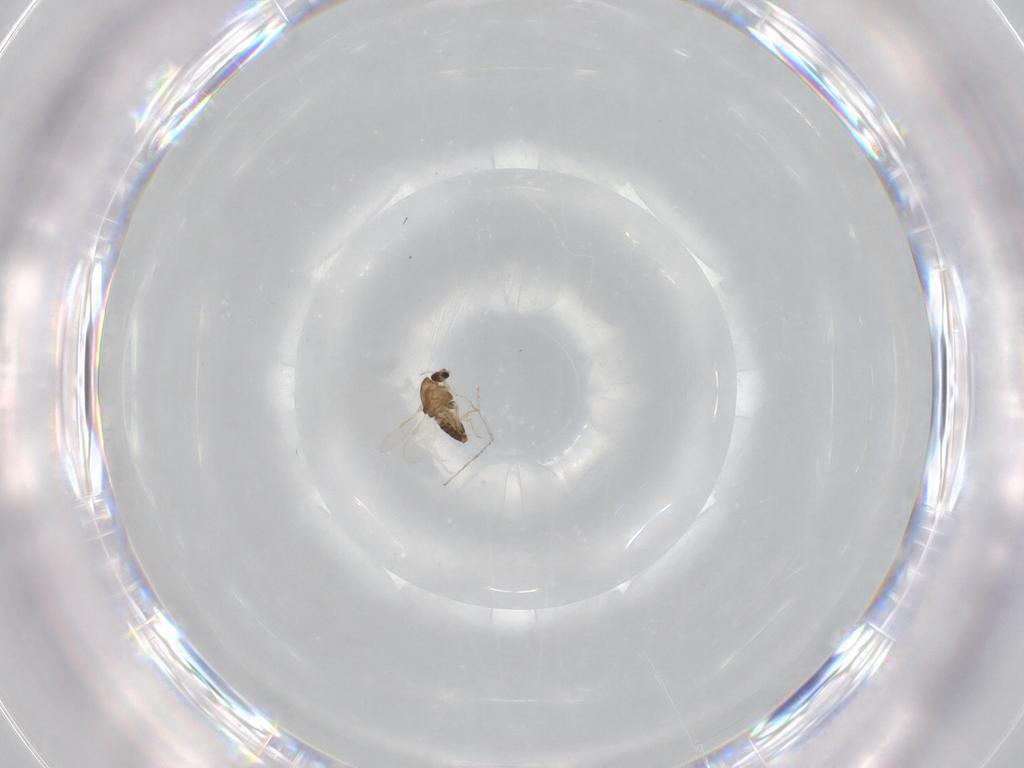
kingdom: Animalia
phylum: Arthropoda
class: Insecta
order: Diptera
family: Chironomidae
